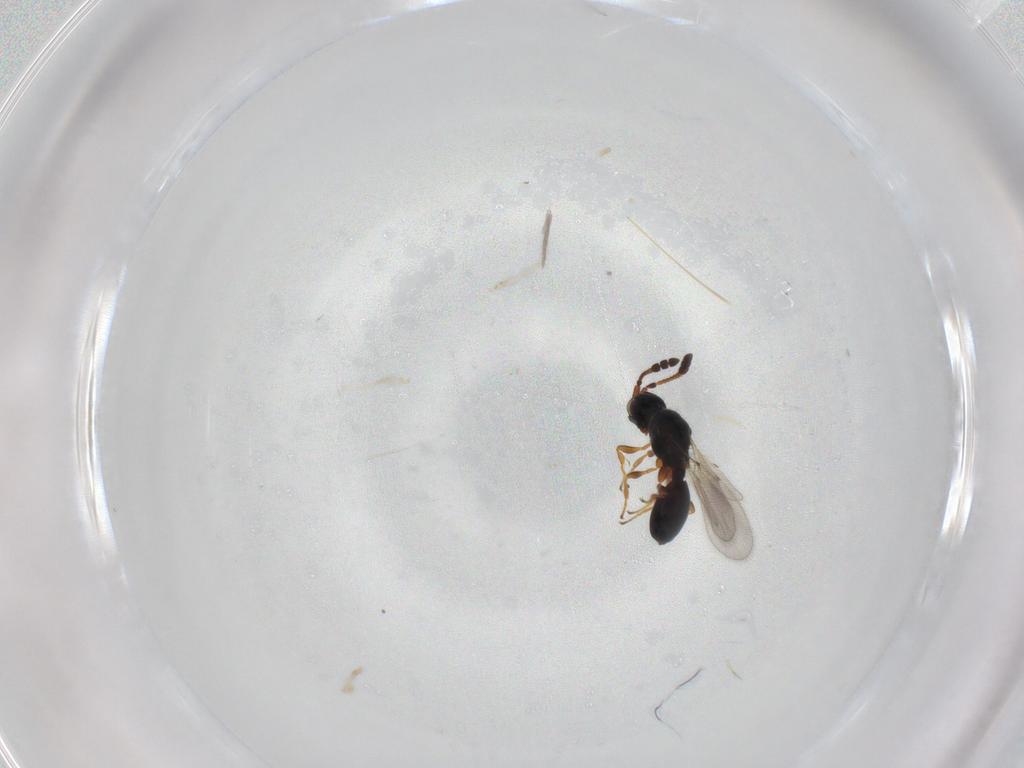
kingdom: Animalia
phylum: Arthropoda
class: Insecta
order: Hymenoptera
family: Diapriidae
